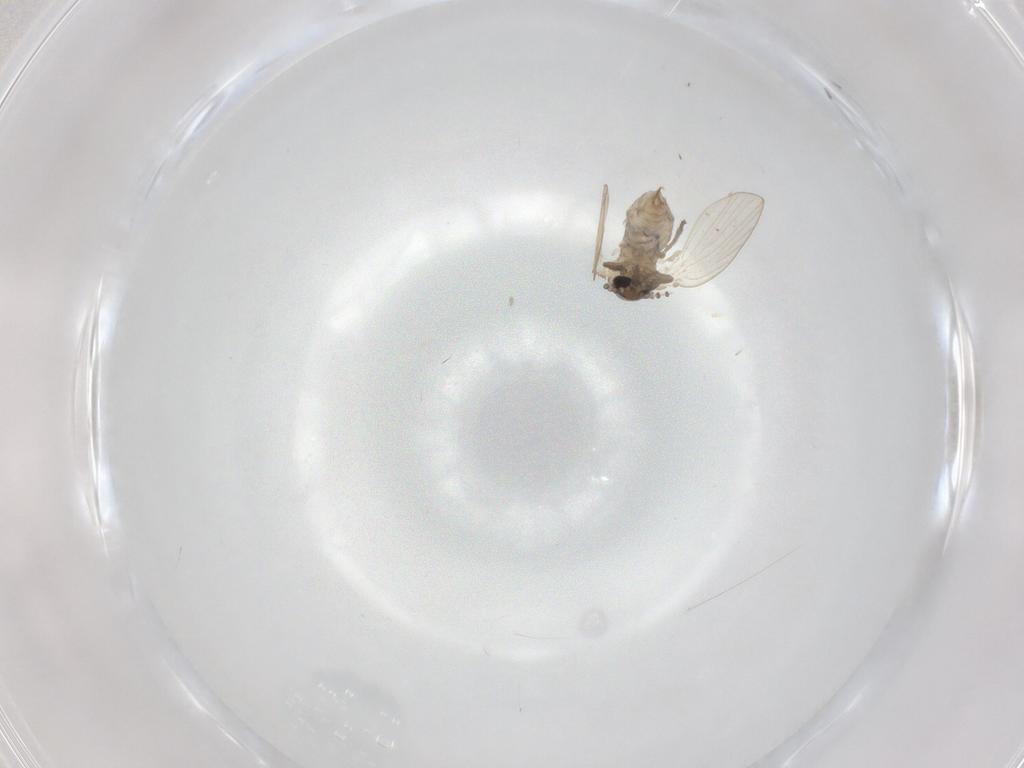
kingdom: Animalia
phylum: Arthropoda
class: Insecta
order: Diptera
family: Psychodidae
